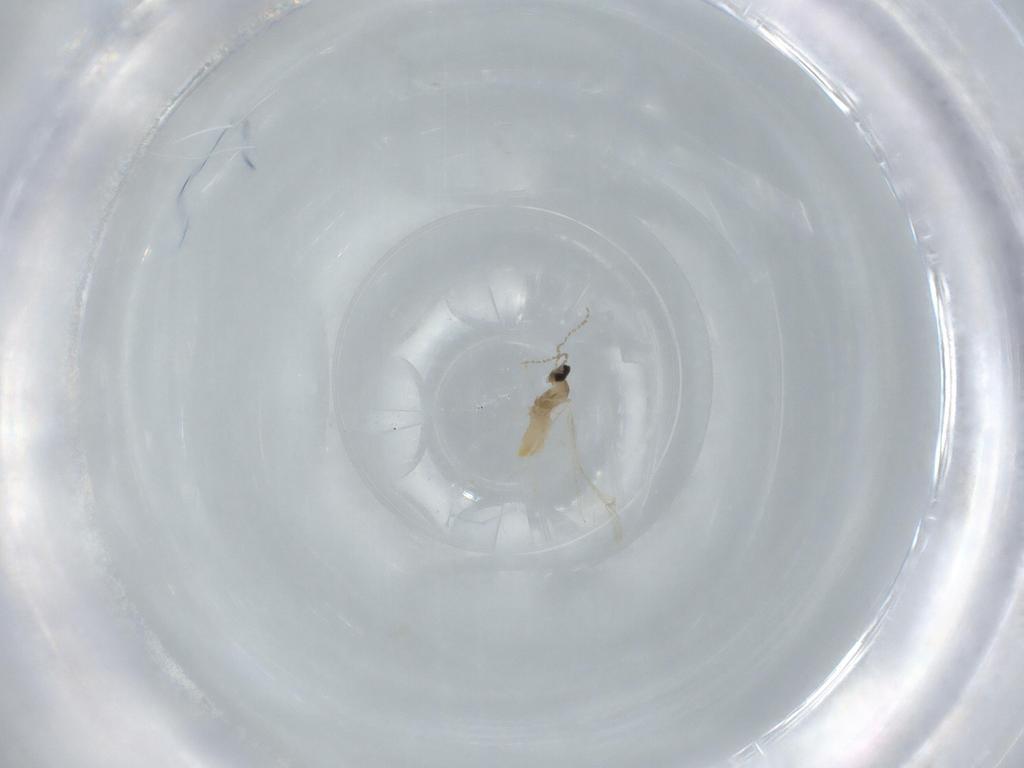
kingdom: Animalia
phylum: Arthropoda
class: Insecta
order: Diptera
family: Cecidomyiidae
